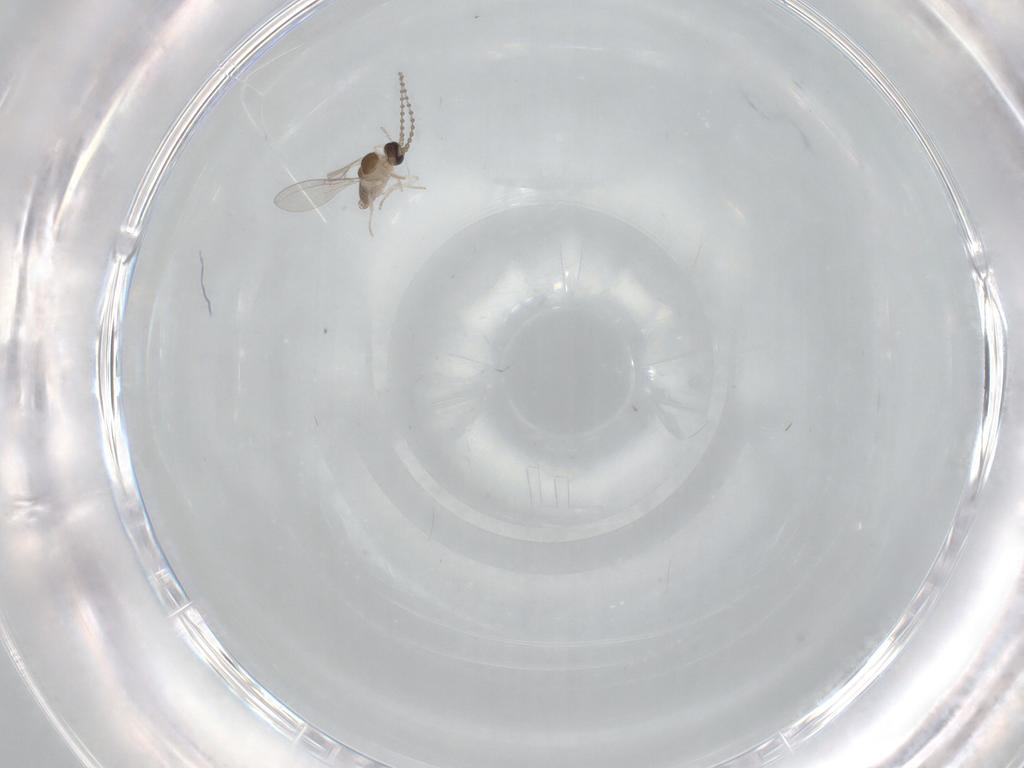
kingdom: Animalia
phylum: Arthropoda
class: Insecta
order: Diptera
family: Cecidomyiidae
